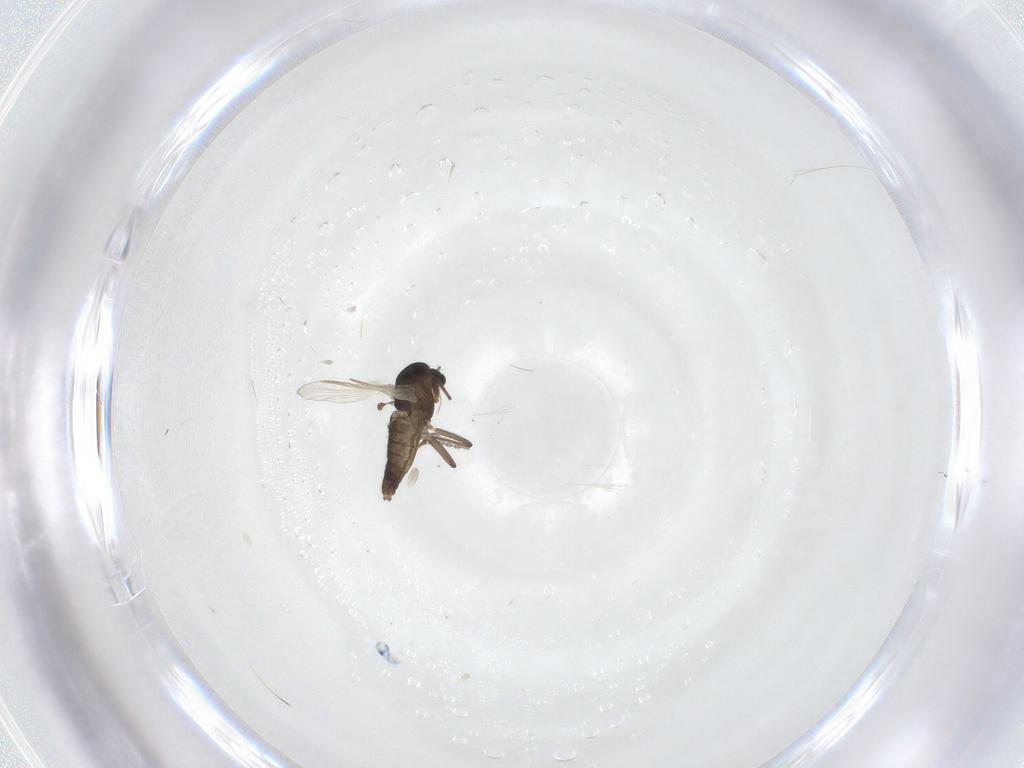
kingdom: Animalia
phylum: Arthropoda
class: Insecta
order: Diptera
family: Chironomidae
